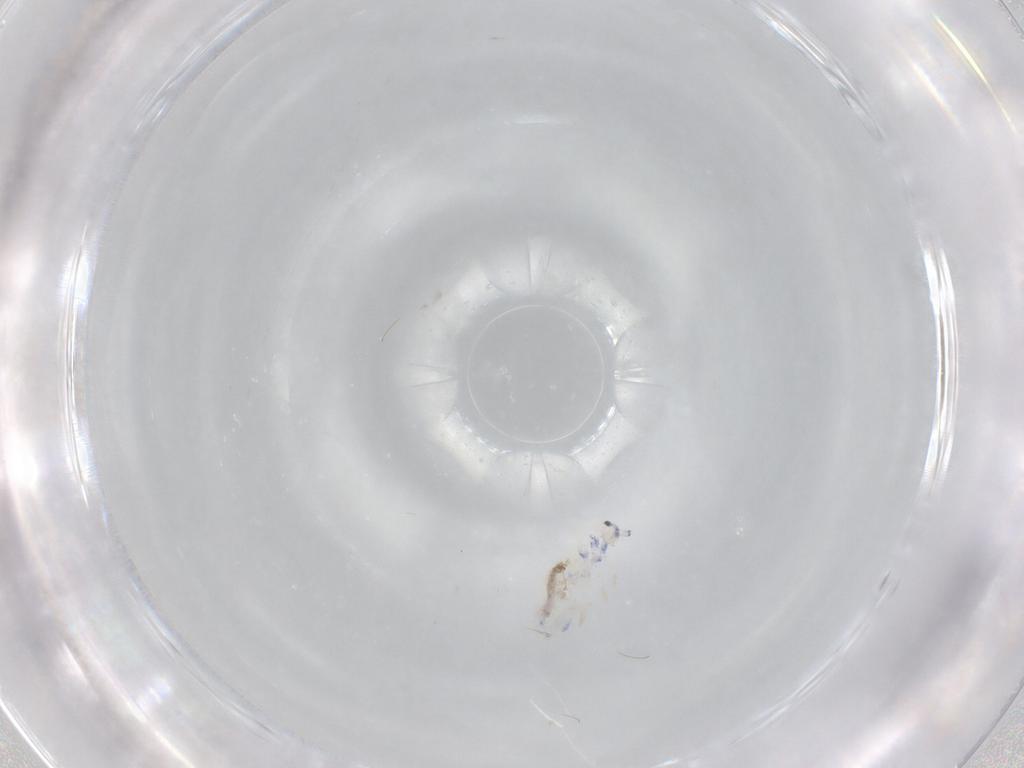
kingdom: Animalia
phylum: Arthropoda
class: Collembola
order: Entomobryomorpha
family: Entomobryidae
